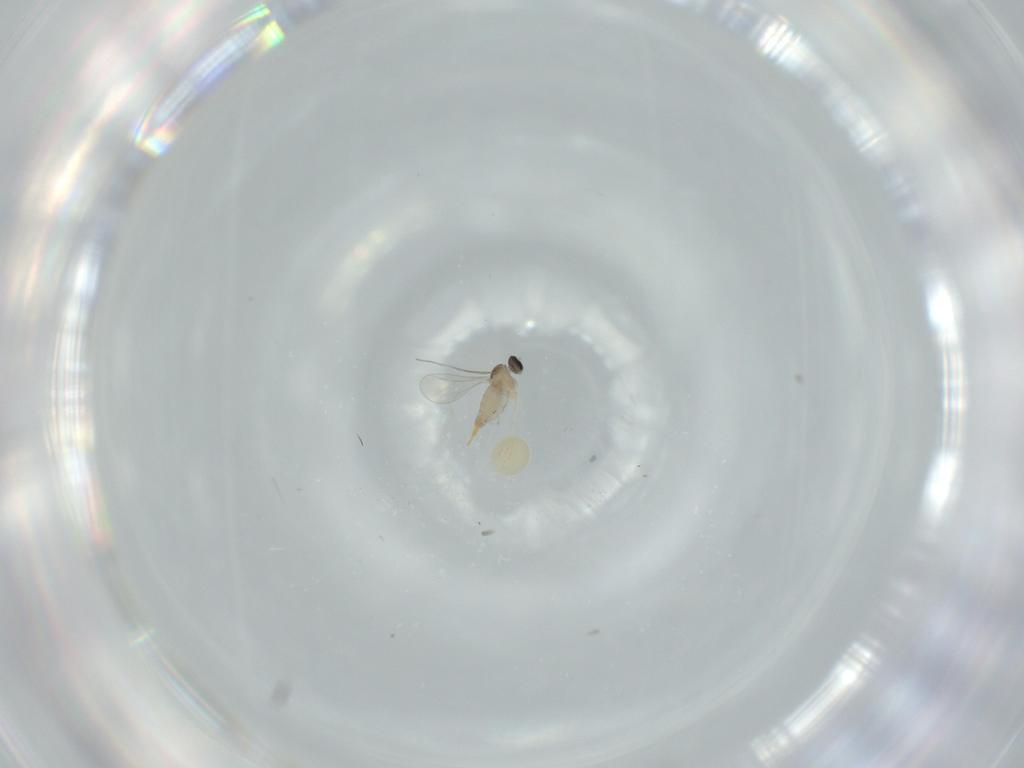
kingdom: Animalia
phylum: Arthropoda
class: Insecta
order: Diptera
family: Cecidomyiidae
